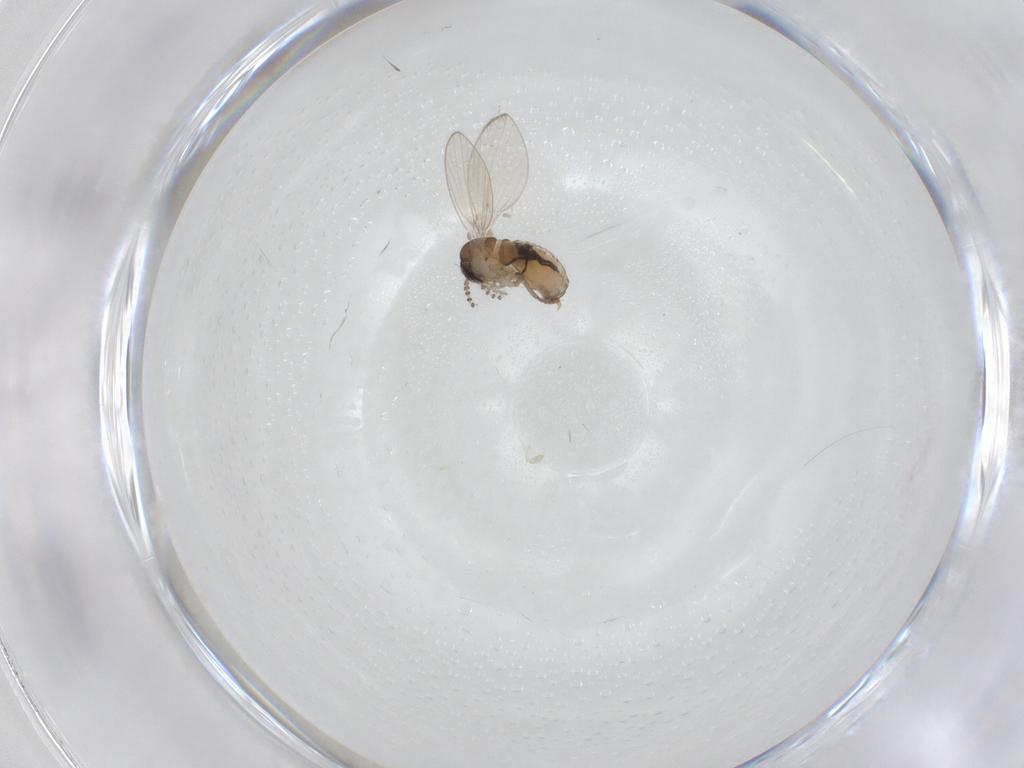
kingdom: Animalia
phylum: Arthropoda
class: Insecta
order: Diptera
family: Psychodidae
